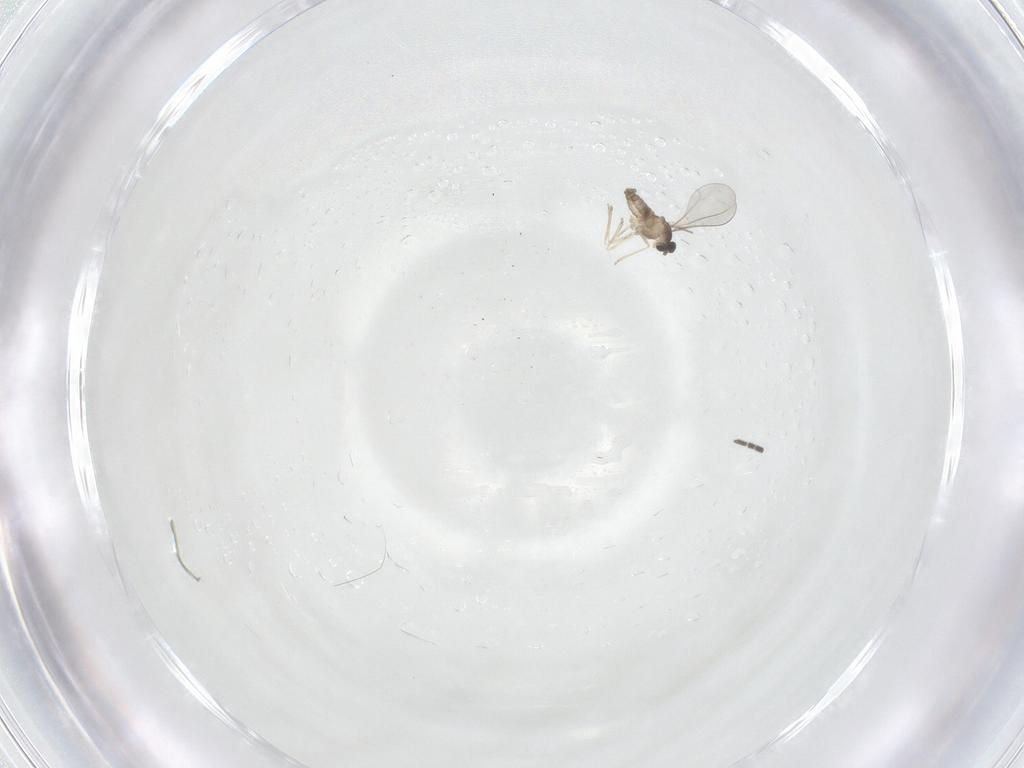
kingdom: Animalia
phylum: Arthropoda
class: Insecta
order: Diptera
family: Cecidomyiidae
